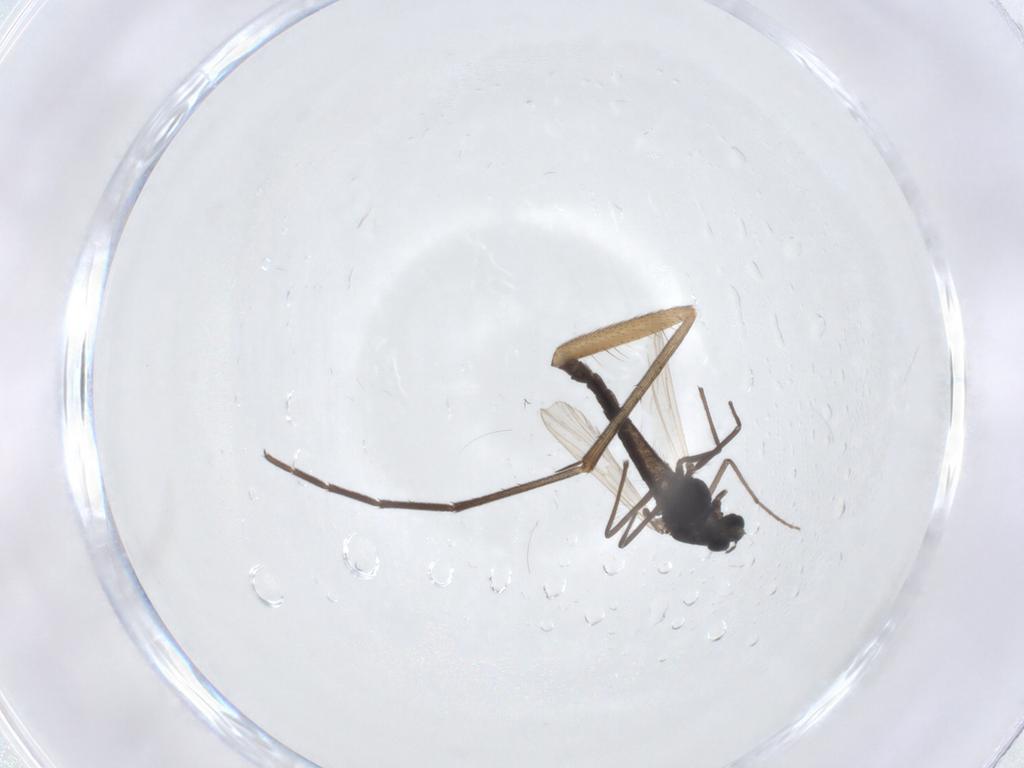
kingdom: Animalia
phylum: Arthropoda
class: Insecta
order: Diptera
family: Mycetophilidae
